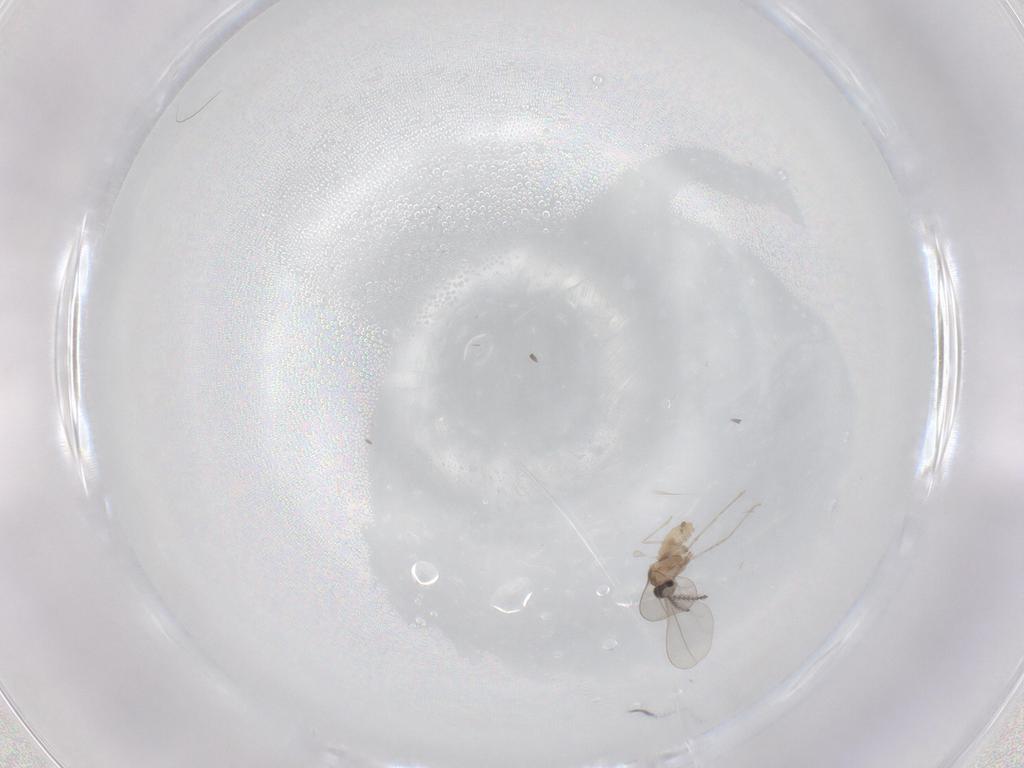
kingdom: Animalia
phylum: Arthropoda
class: Insecta
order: Diptera
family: Cecidomyiidae
